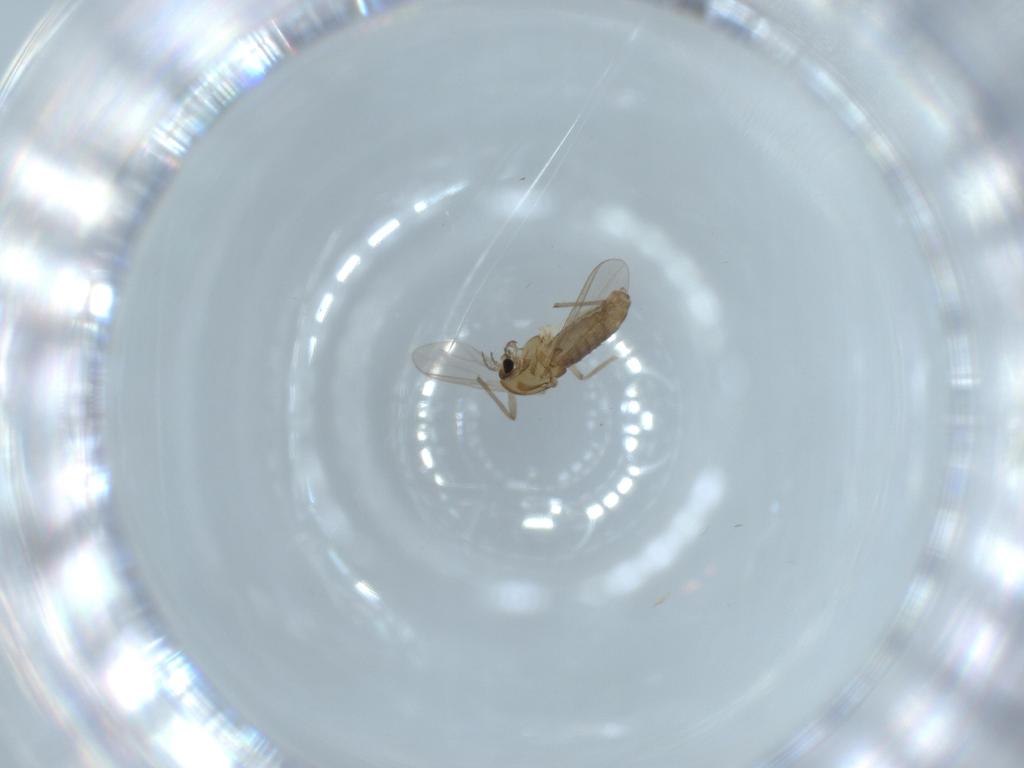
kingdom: Animalia
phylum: Arthropoda
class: Insecta
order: Diptera
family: Chironomidae
